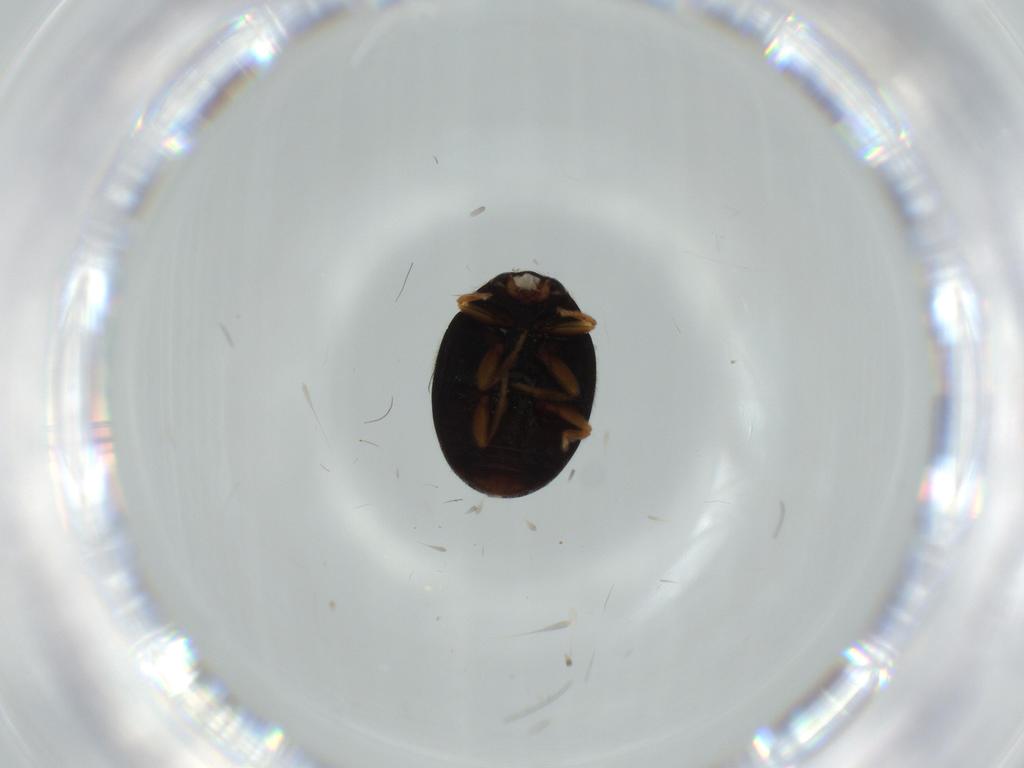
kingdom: Animalia
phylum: Arthropoda
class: Insecta
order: Coleoptera
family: Coccinellidae
